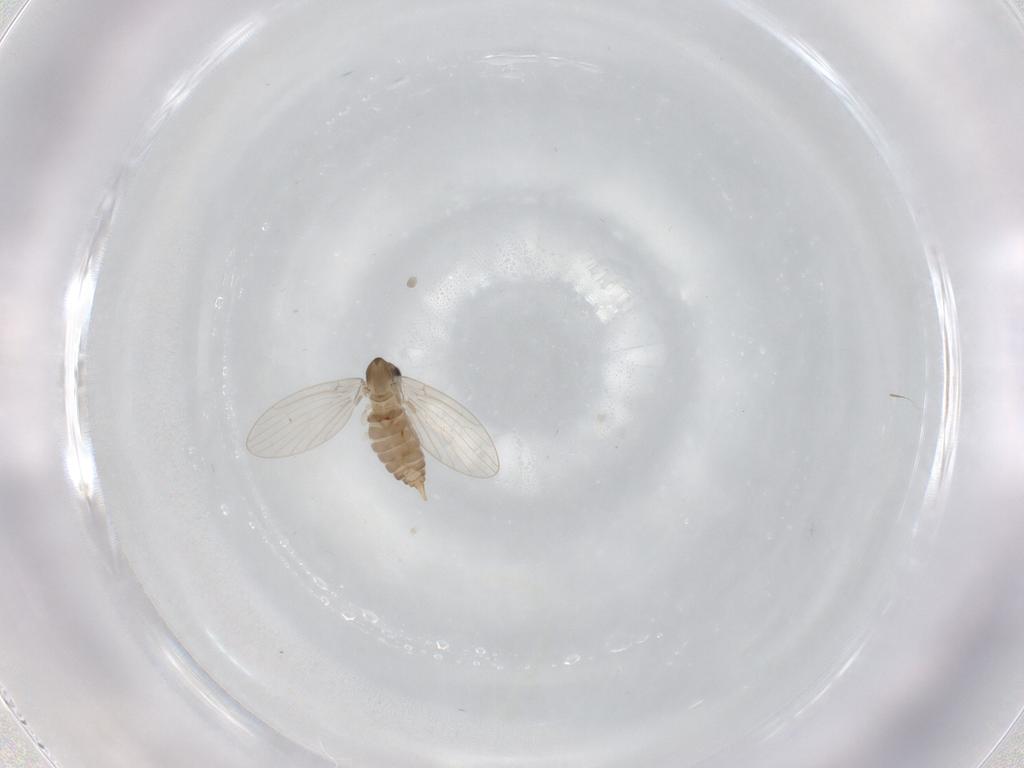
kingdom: Animalia
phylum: Arthropoda
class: Insecta
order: Diptera
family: Psychodidae
